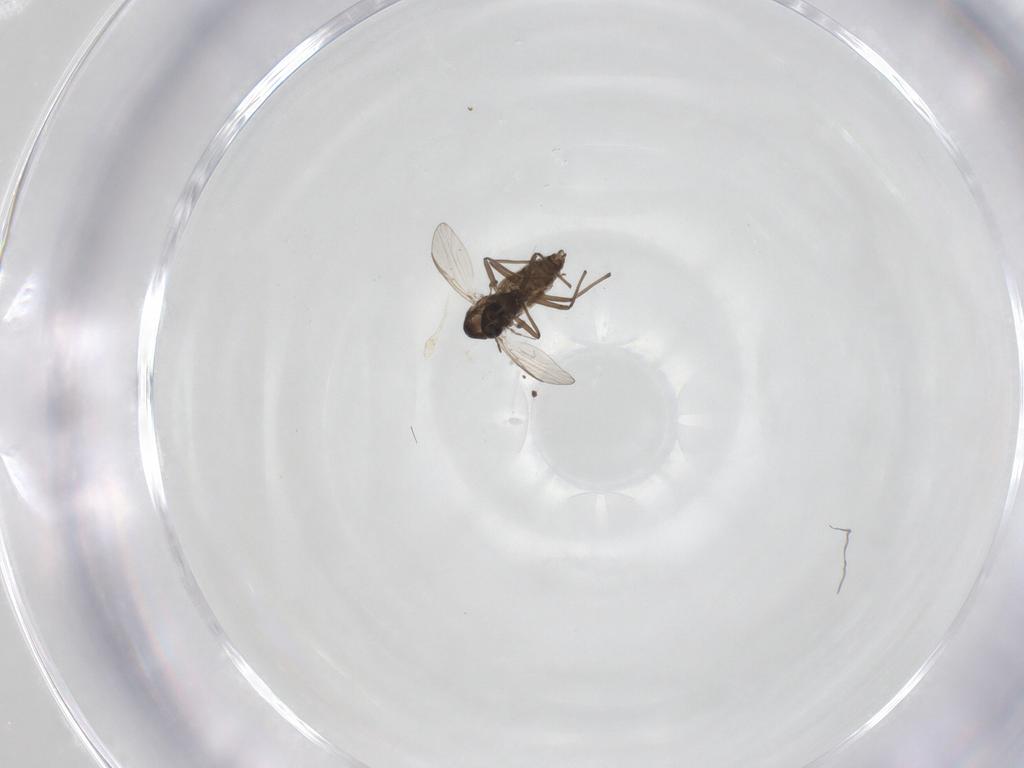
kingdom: Animalia
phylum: Arthropoda
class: Insecta
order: Diptera
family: Chironomidae
